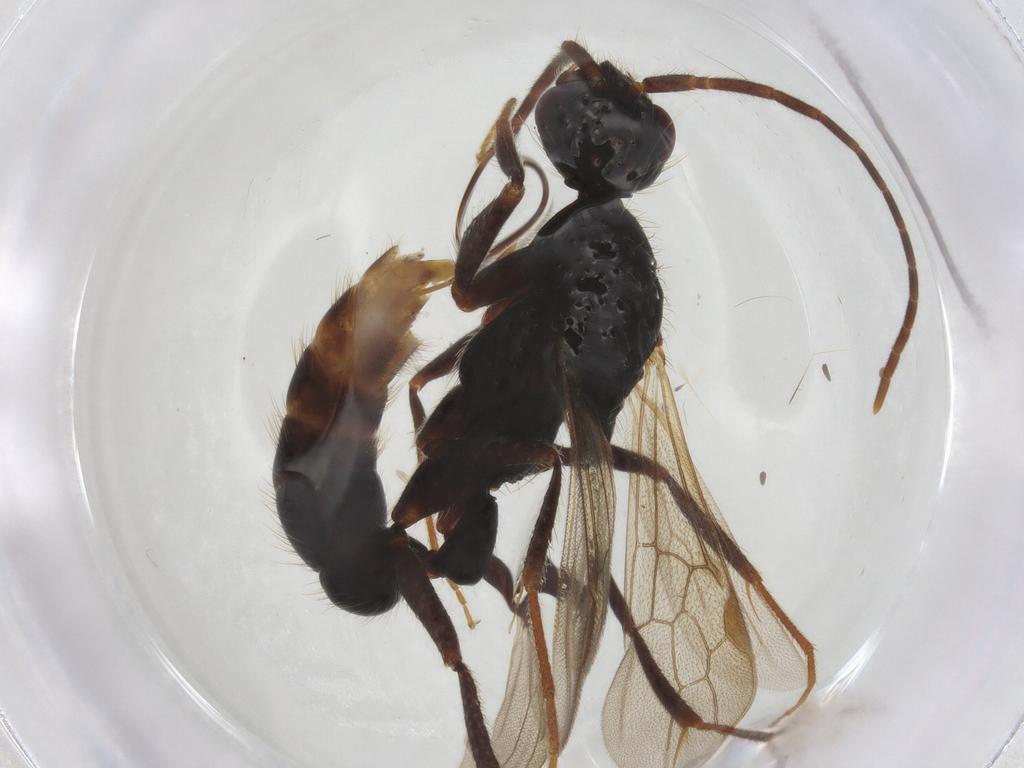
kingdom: Animalia
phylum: Arthropoda
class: Insecta
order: Hymenoptera
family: Formicidae
